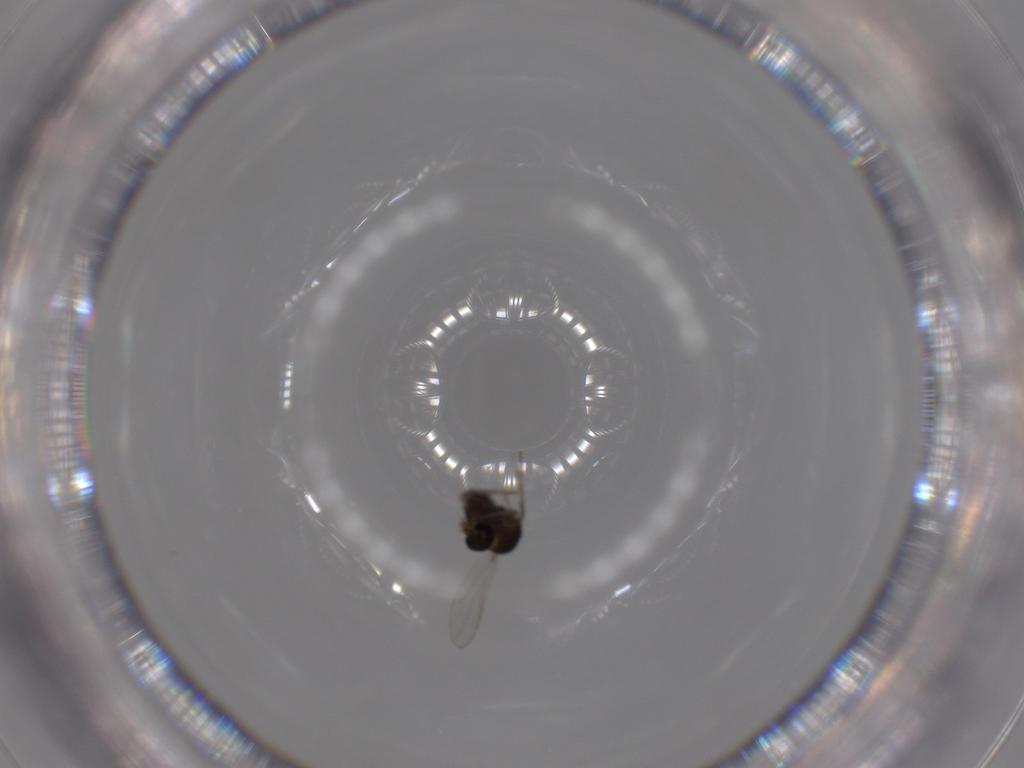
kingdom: Animalia
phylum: Arthropoda
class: Insecta
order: Diptera
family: Chironomidae
